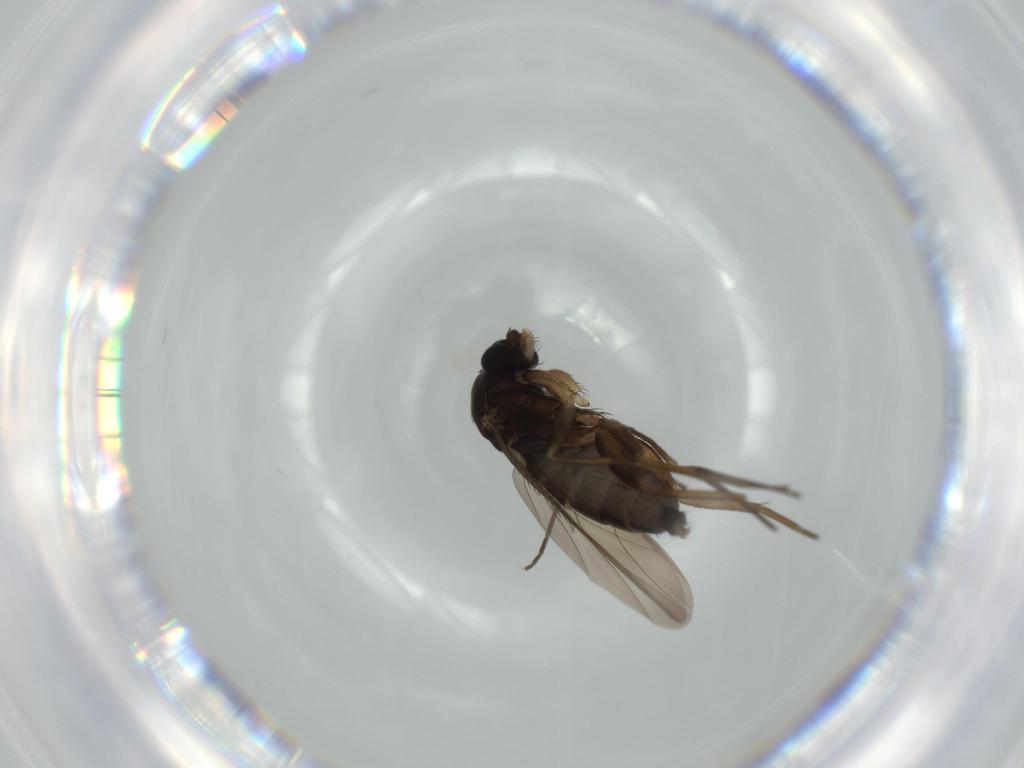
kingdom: Animalia
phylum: Arthropoda
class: Insecta
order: Diptera
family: Phoridae
